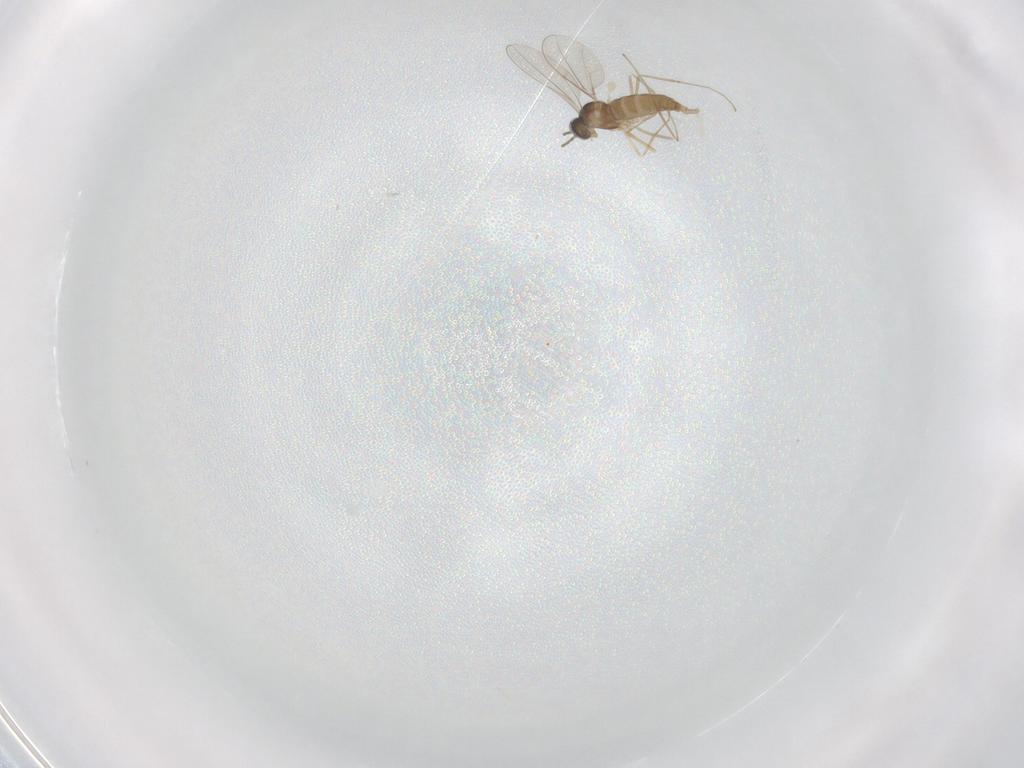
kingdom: Animalia
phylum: Arthropoda
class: Insecta
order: Diptera
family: Cecidomyiidae
